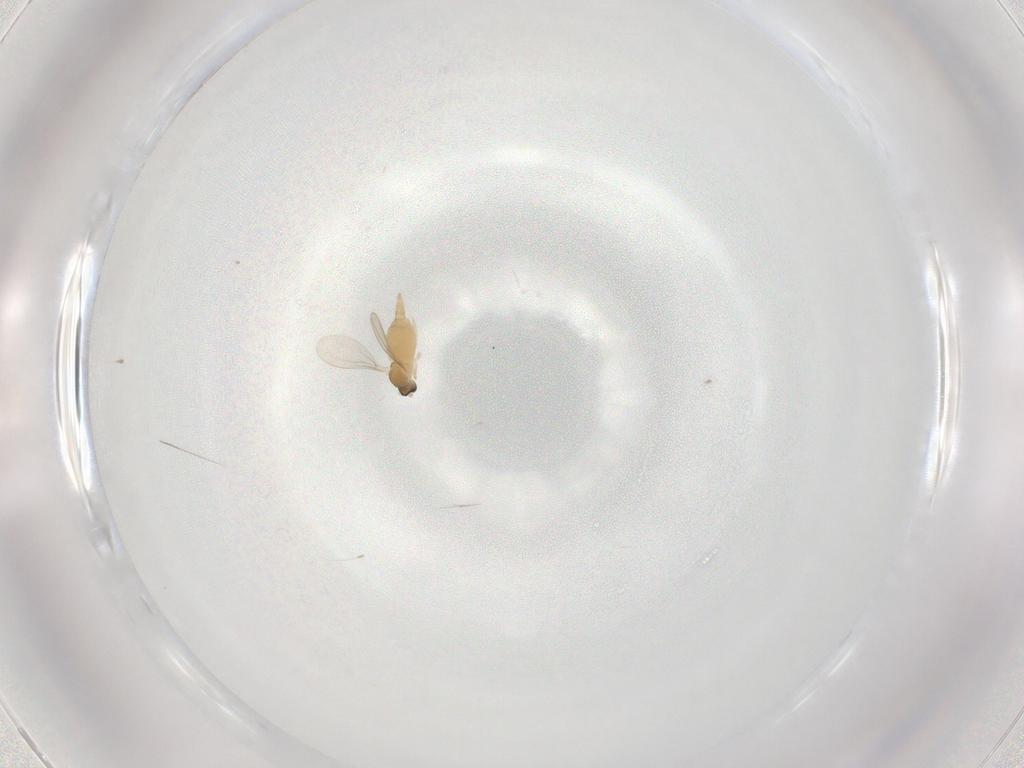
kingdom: Animalia
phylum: Arthropoda
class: Insecta
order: Diptera
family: Cecidomyiidae
